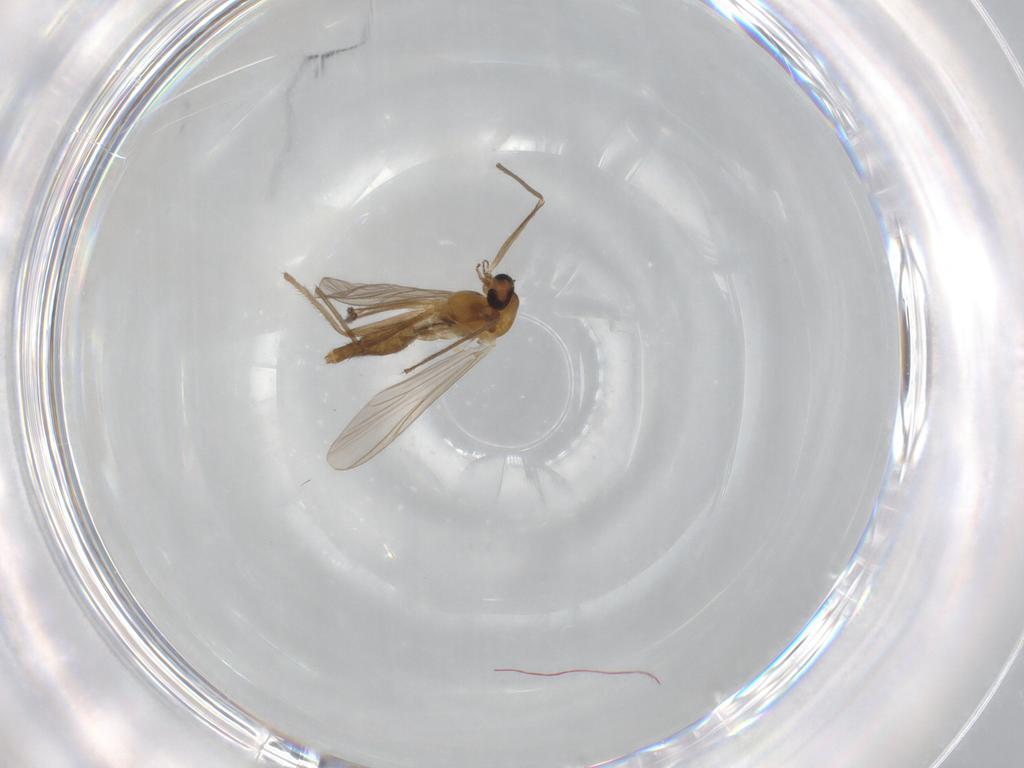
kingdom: Animalia
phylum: Arthropoda
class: Insecta
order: Diptera
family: Chironomidae
